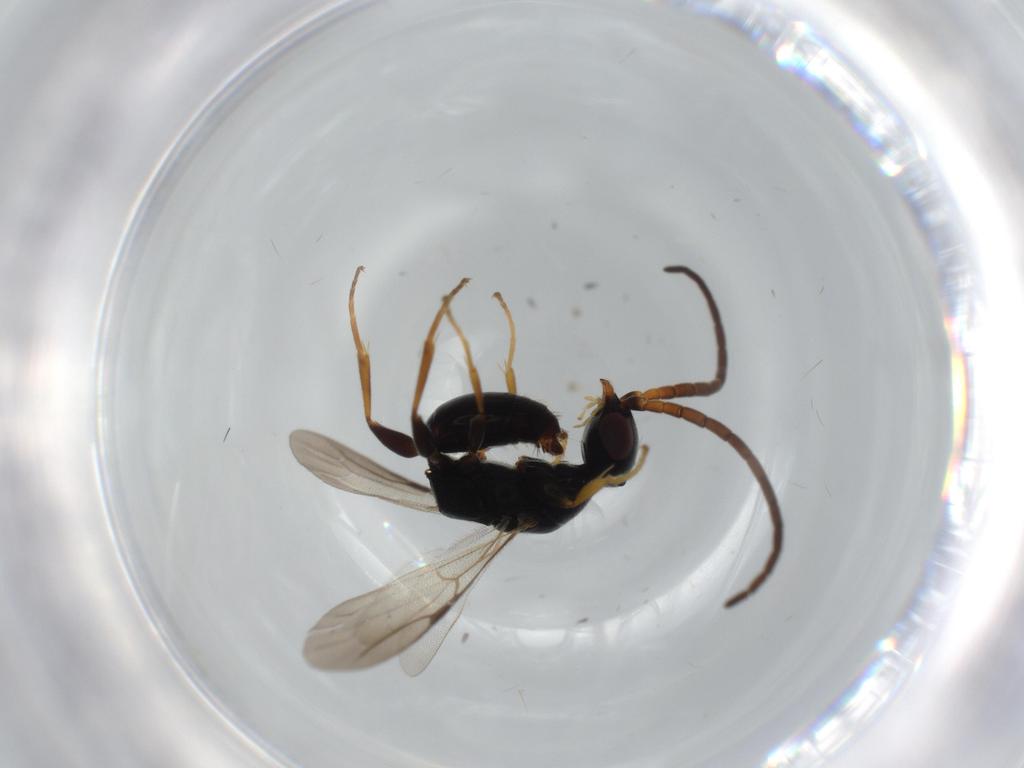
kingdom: Animalia
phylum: Arthropoda
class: Insecta
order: Hymenoptera
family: Bethylidae
